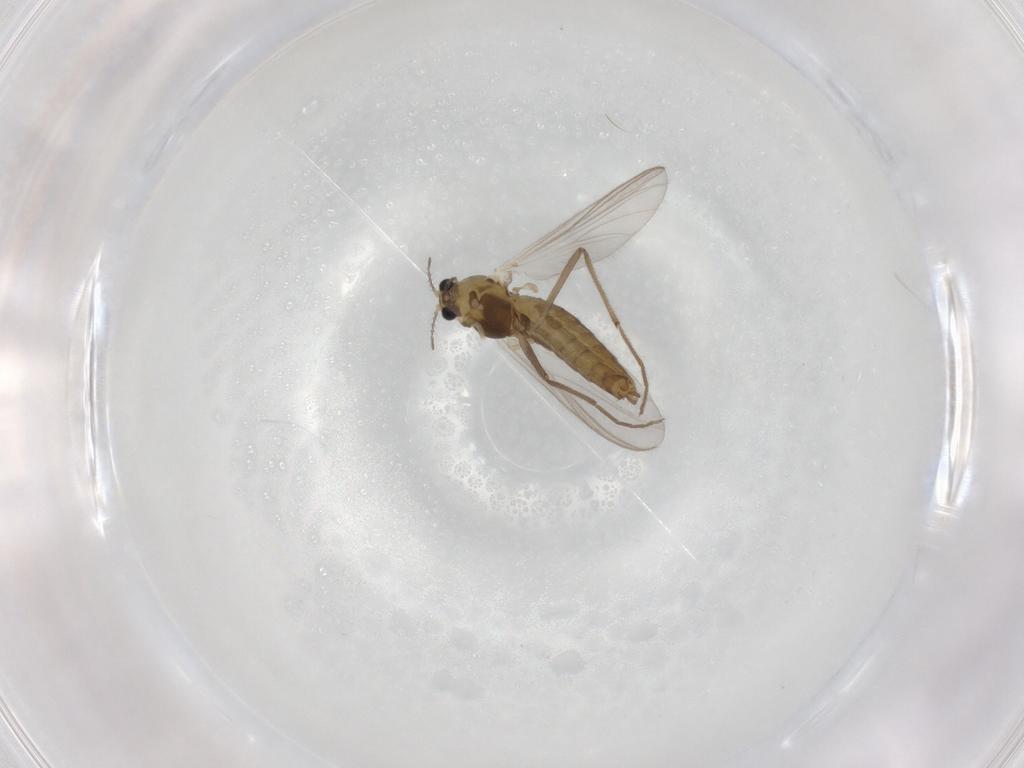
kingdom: Animalia
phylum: Arthropoda
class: Insecta
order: Diptera
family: Chironomidae
